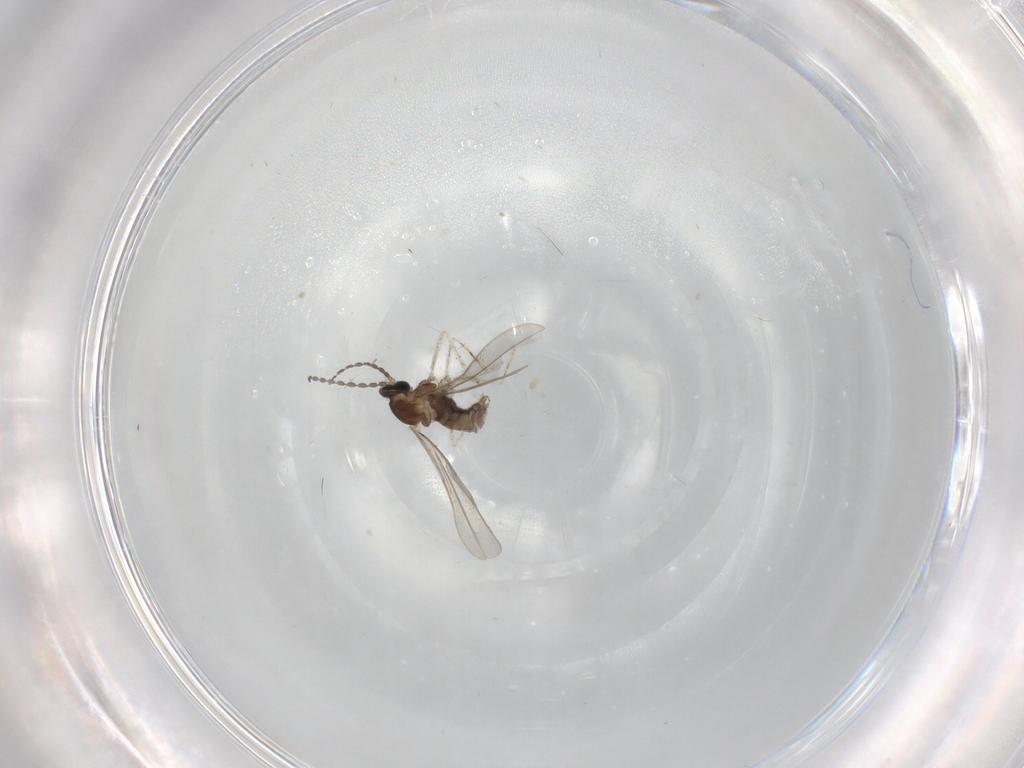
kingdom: Animalia
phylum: Arthropoda
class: Insecta
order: Diptera
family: Cecidomyiidae
